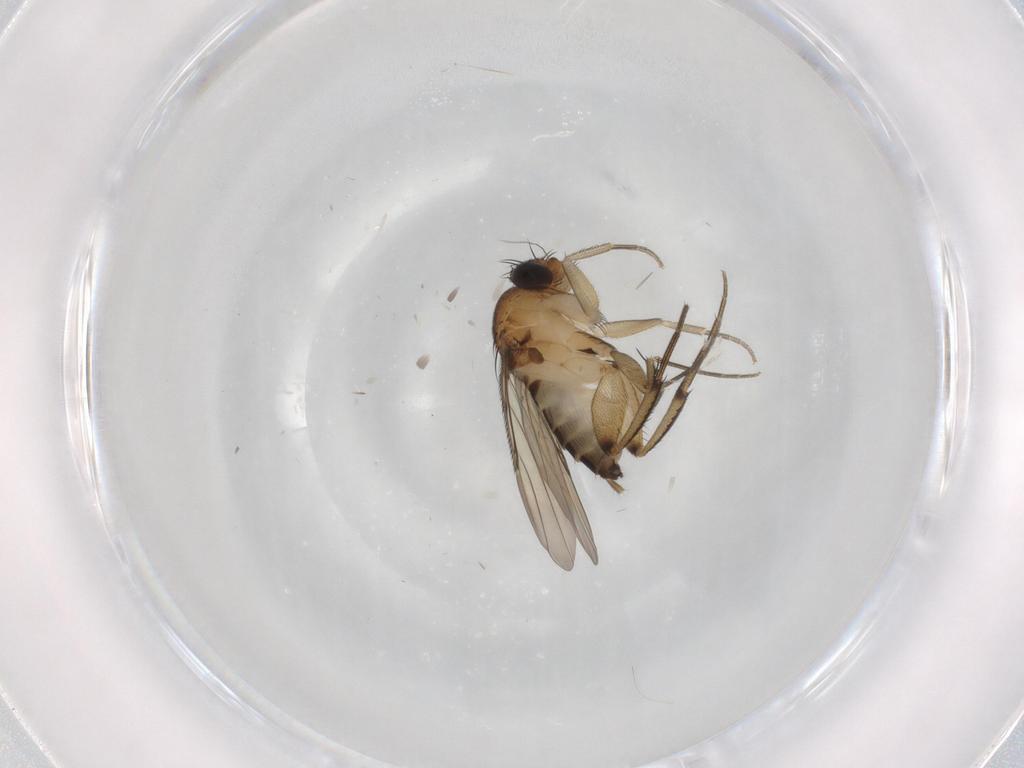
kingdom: Animalia
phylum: Arthropoda
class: Insecta
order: Diptera
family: Phoridae
